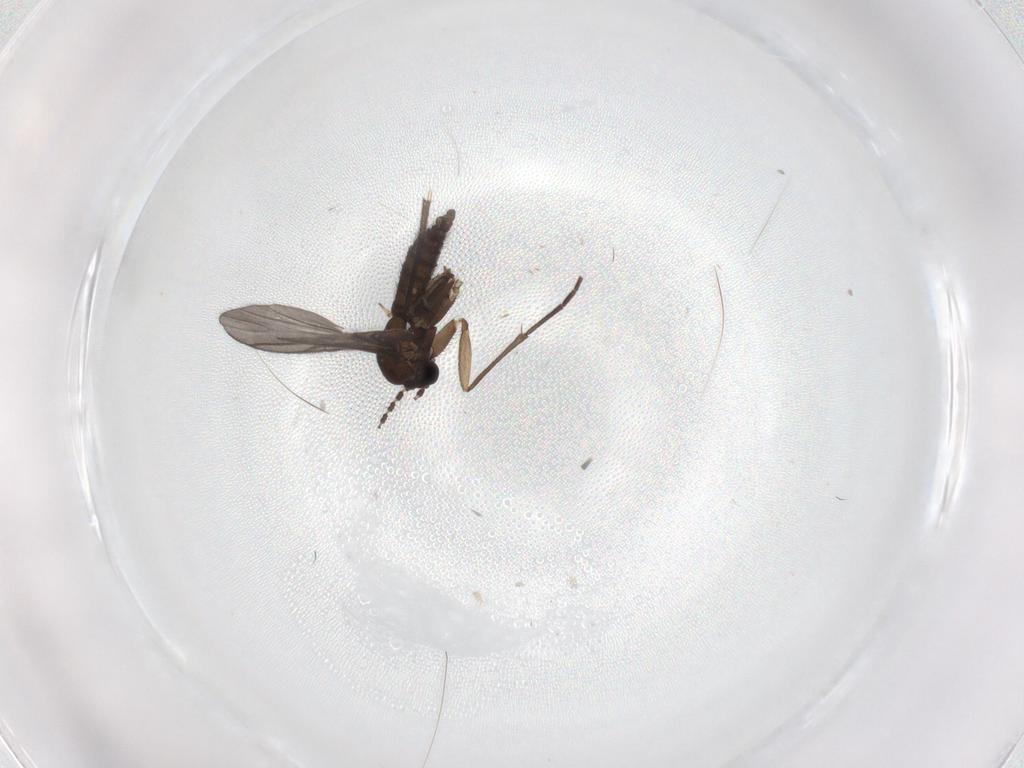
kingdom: Animalia
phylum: Arthropoda
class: Insecta
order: Diptera
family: Sciaridae
